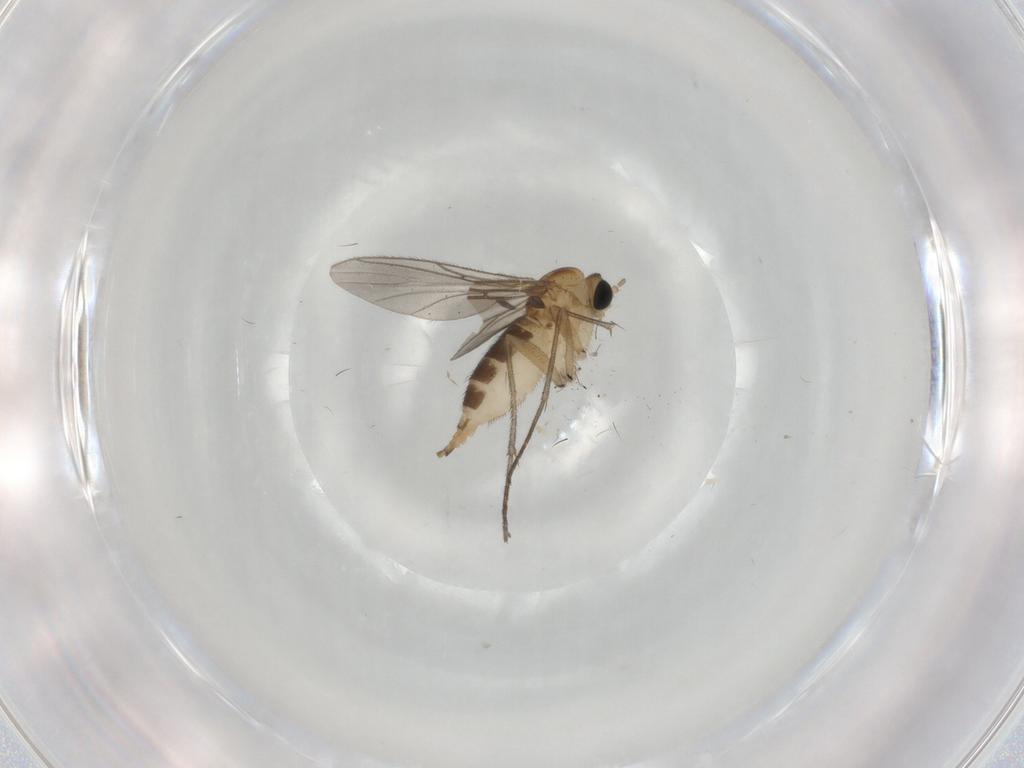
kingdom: Animalia
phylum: Arthropoda
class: Insecta
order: Diptera
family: Sciaridae
